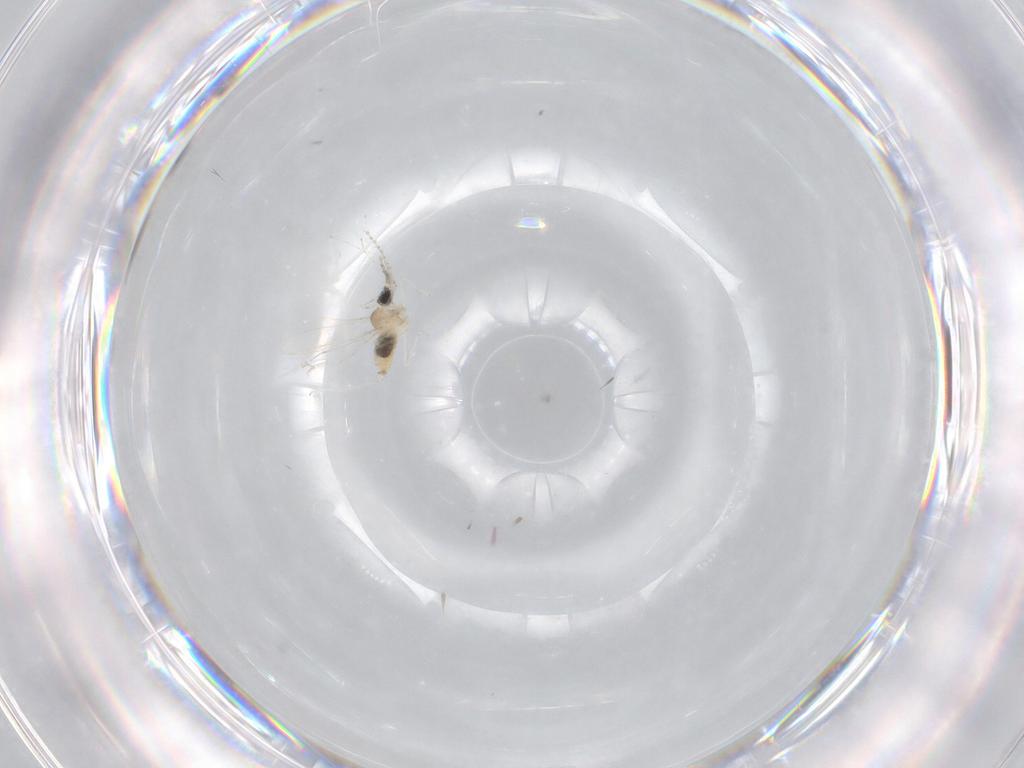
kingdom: Animalia
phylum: Arthropoda
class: Insecta
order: Diptera
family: Cecidomyiidae
